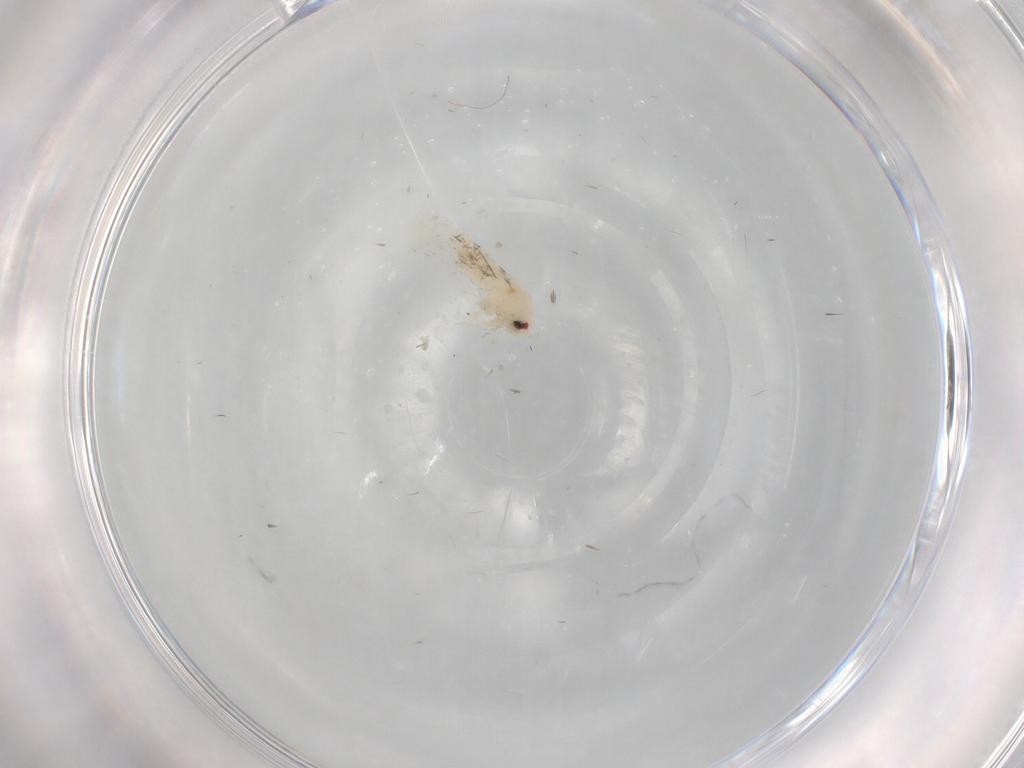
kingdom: Animalia
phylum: Arthropoda
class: Insecta
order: Hemiptera
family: Aleyrodidae
